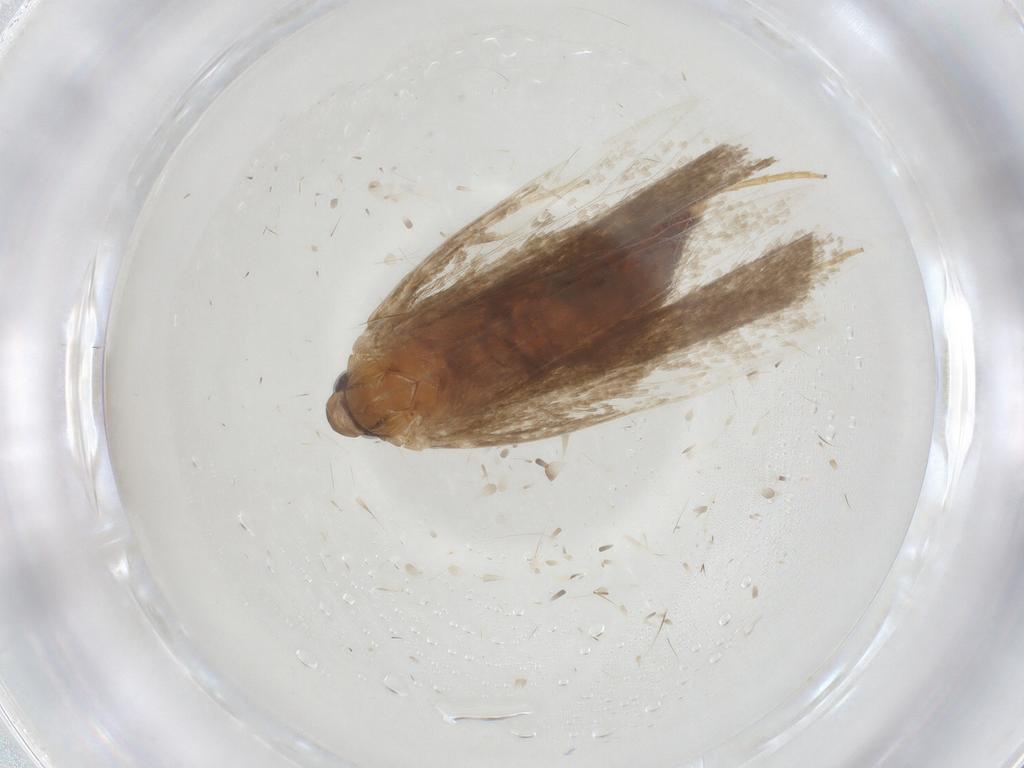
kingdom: Animalia
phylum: Arthropoda
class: Insecta
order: Lepidoptera
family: Gelechiidae
